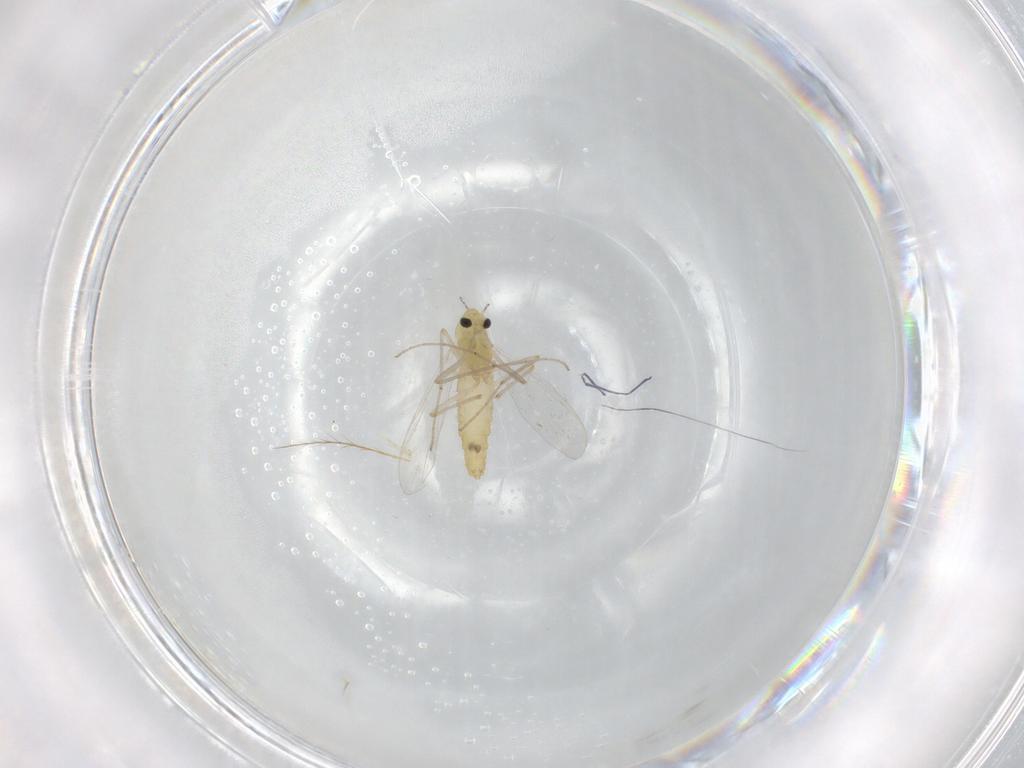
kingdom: Animalia
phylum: Arthropoda
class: Insecta
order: Diptera
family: Chironomidae
